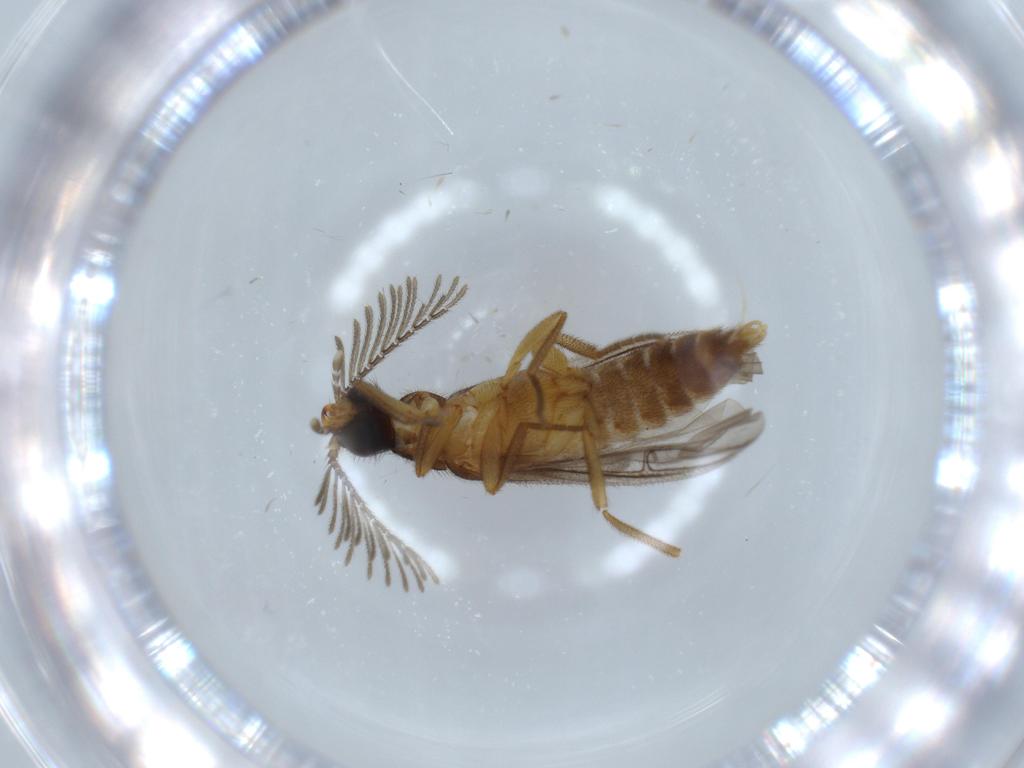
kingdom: Animalia
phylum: Arthropoda
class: Insecta
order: Coleoptera
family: Chrysomelidae
